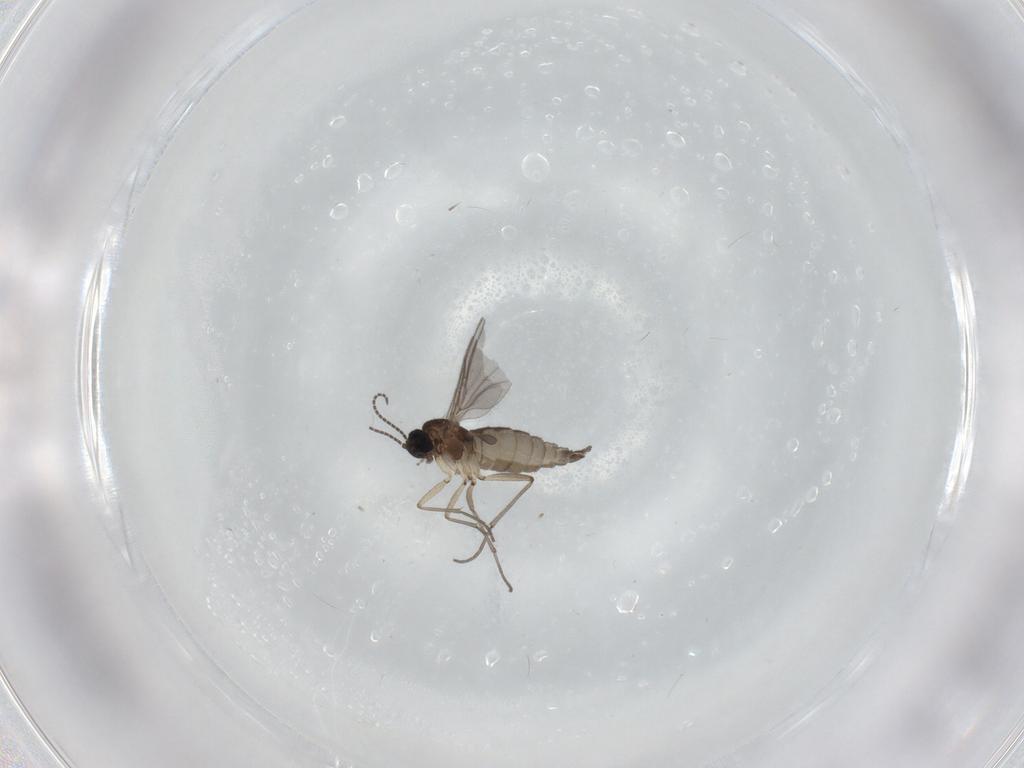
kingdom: Animalia
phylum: Arthropoda
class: Insecta
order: Diptera
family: Sciaridae
